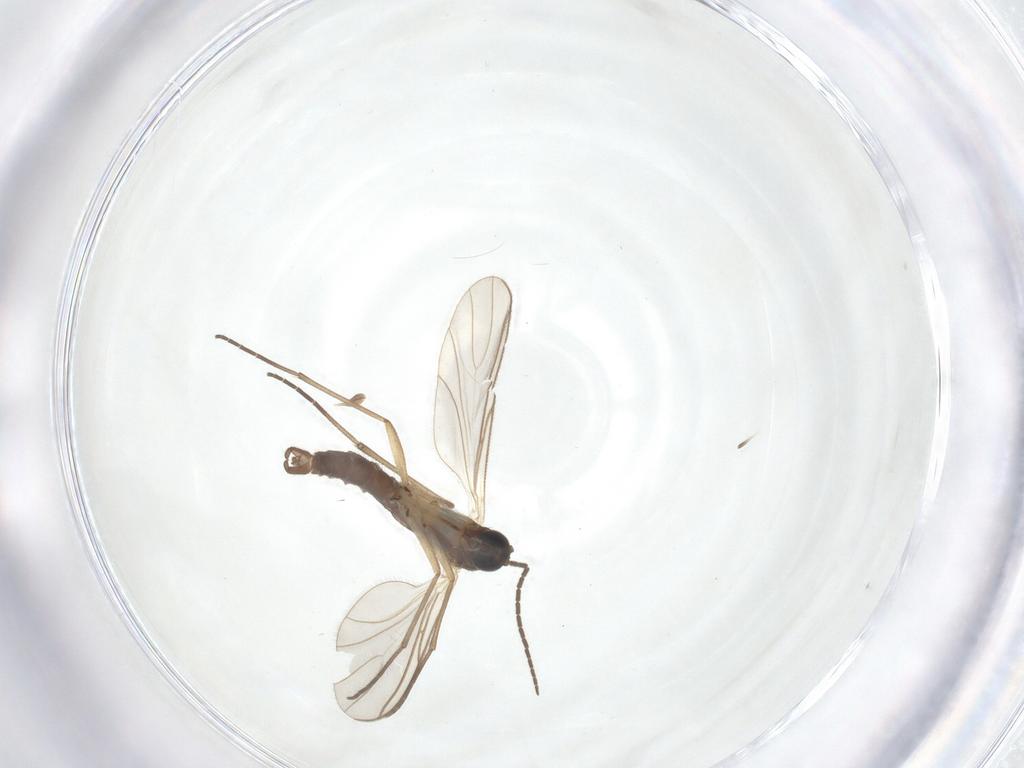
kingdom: Animalia
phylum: Arthropoda
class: Insecta
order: Diptera
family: Sciaridae
